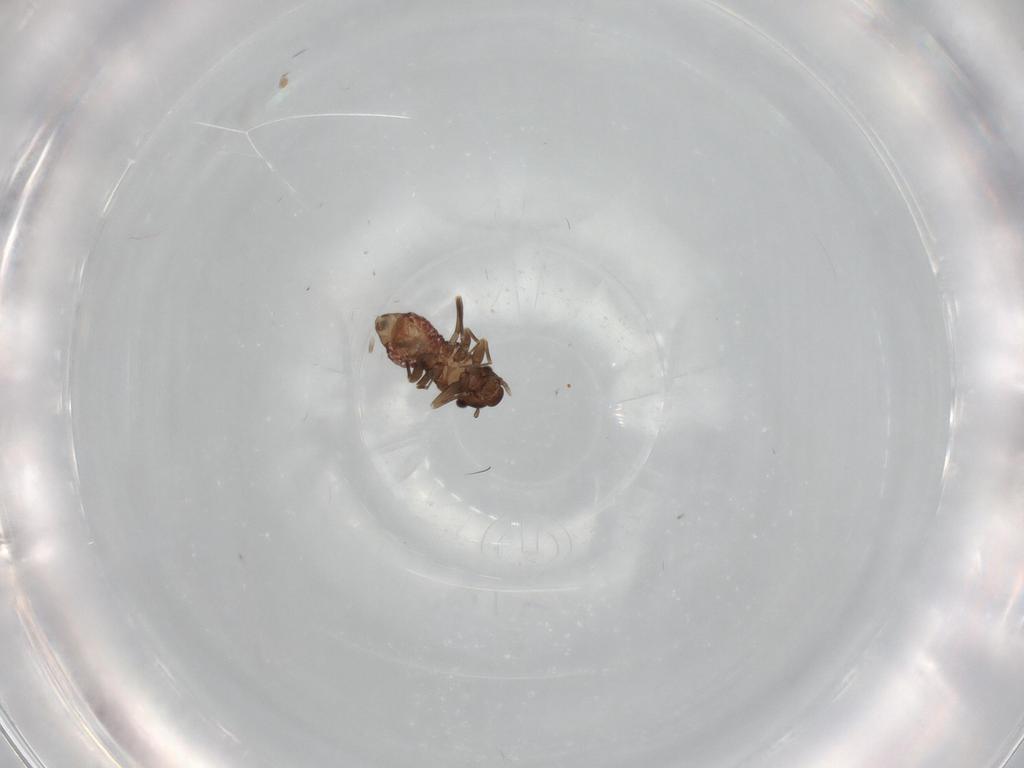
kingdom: Animalia
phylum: Arthropoda
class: Insecta
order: Psocodea
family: Lepidopsocidae
